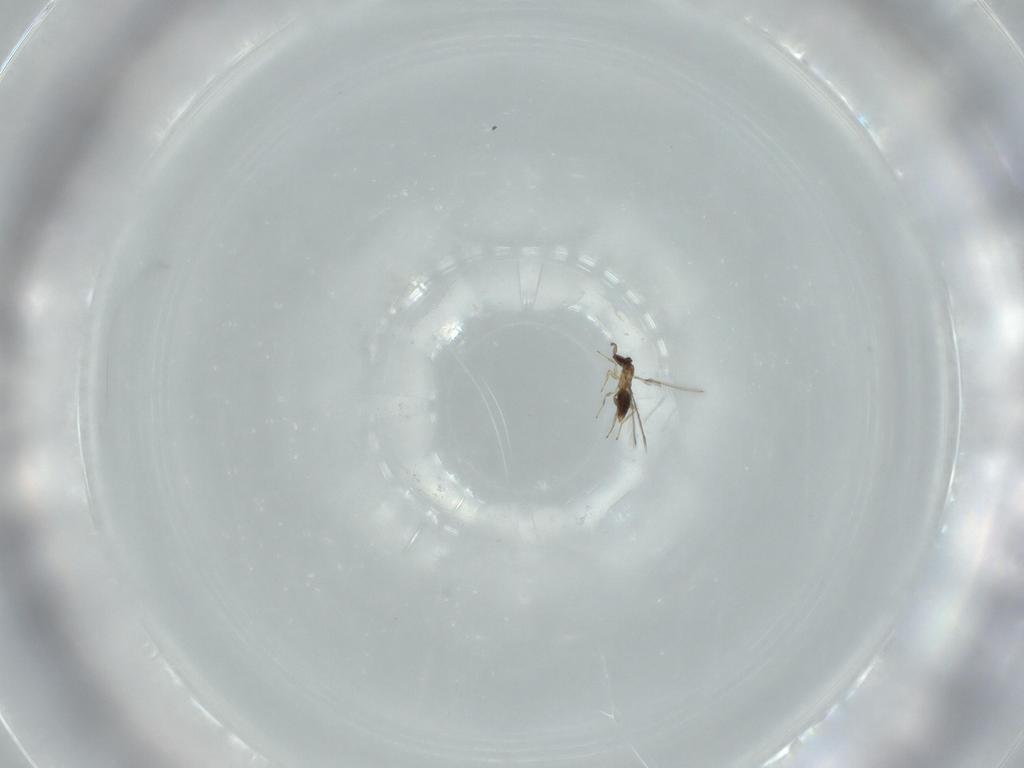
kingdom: Animalia
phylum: Arthropoda
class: Insecta
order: Hymenoptera
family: Mymaridae
